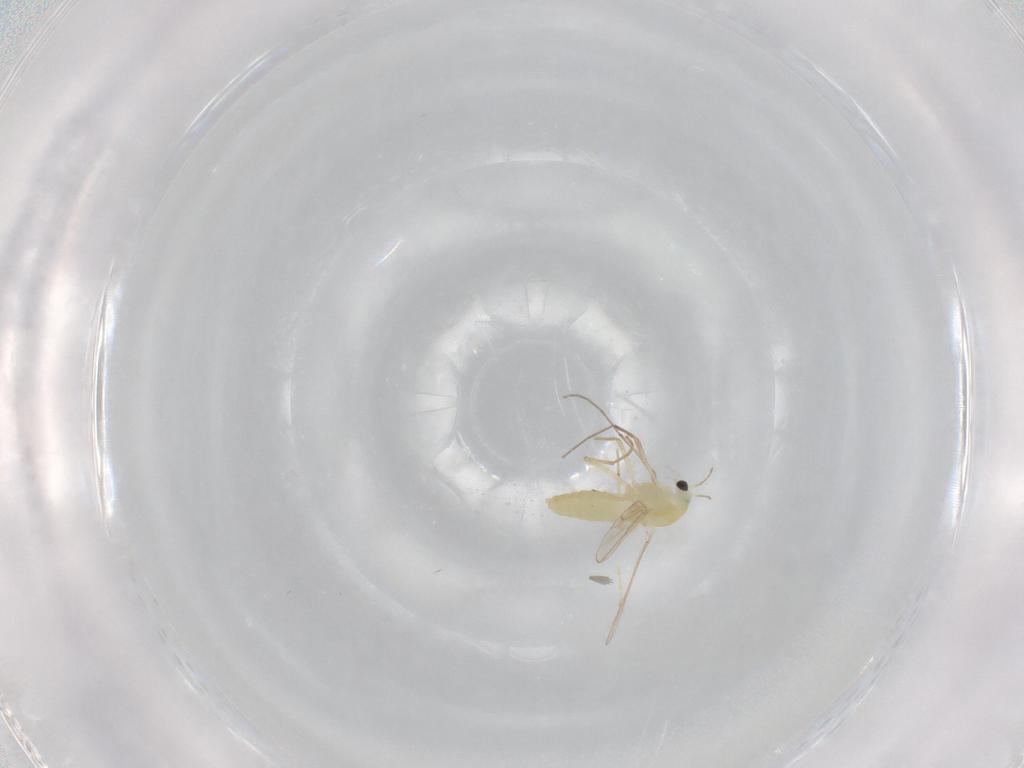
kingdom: Animalia
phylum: Arthropoda
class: Insecta
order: Diptera
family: Chironomidae
